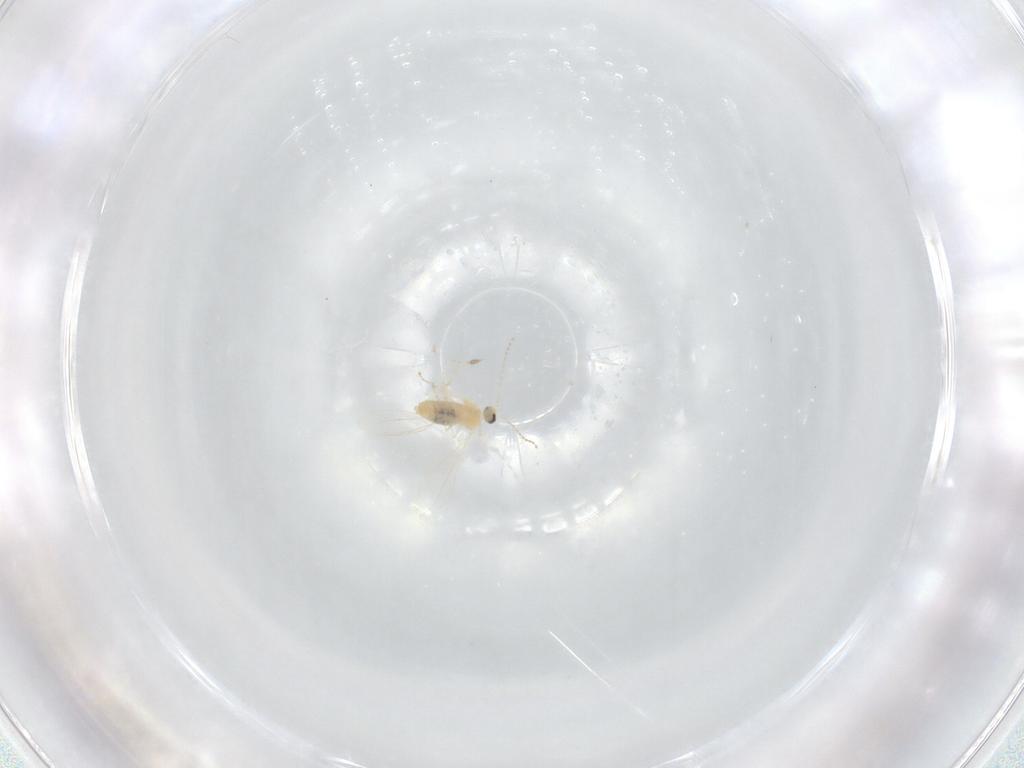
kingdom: Animalia
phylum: Arthropoda
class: Insecta
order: Diptera
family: Cecidomyiidae
